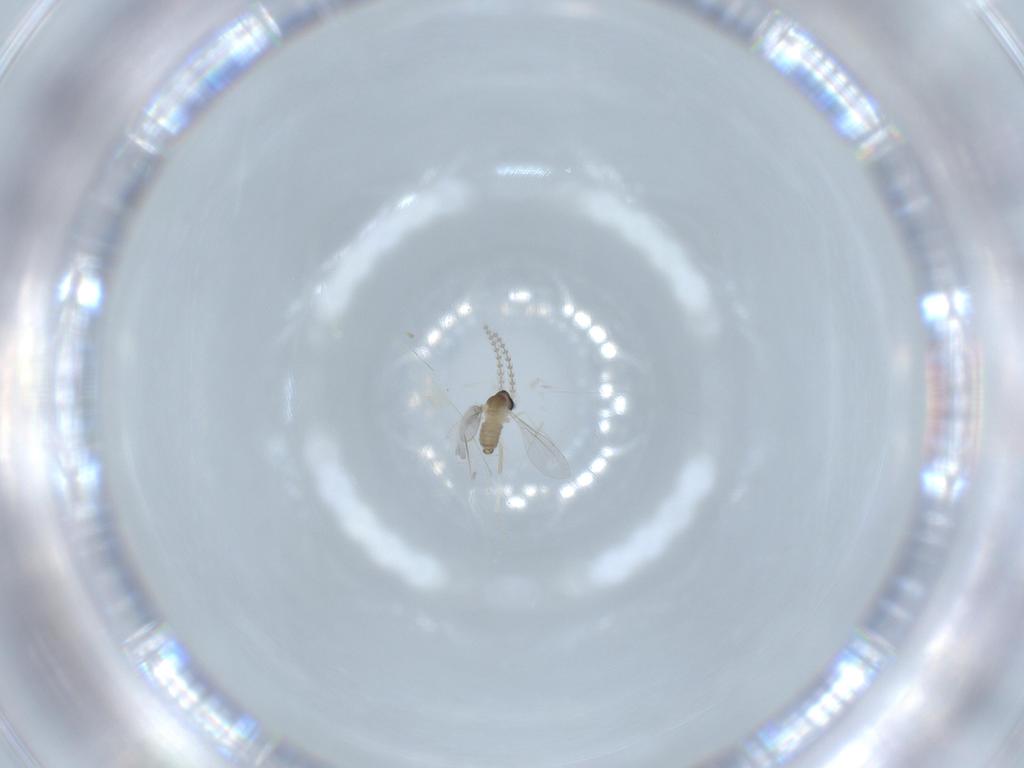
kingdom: Animalia
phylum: Arthropoda
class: Insecta
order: Diptera
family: Cecidomyiidae
